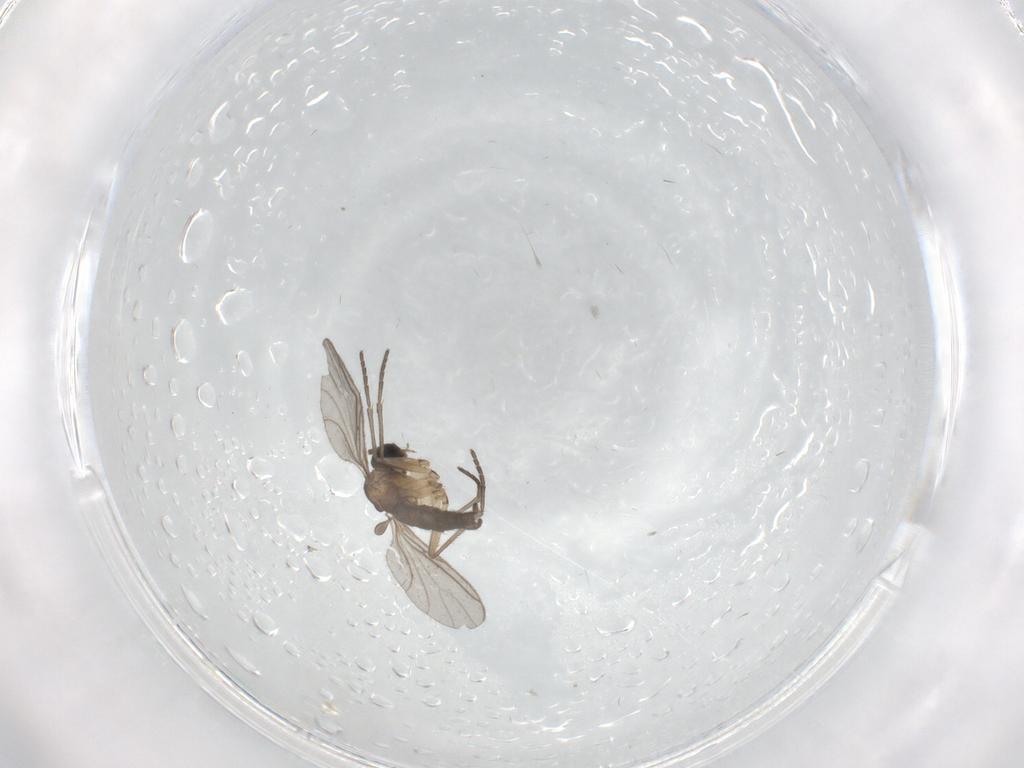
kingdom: Animalia
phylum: Arthropoda
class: Insecta
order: Diptera
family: Sciaridae
